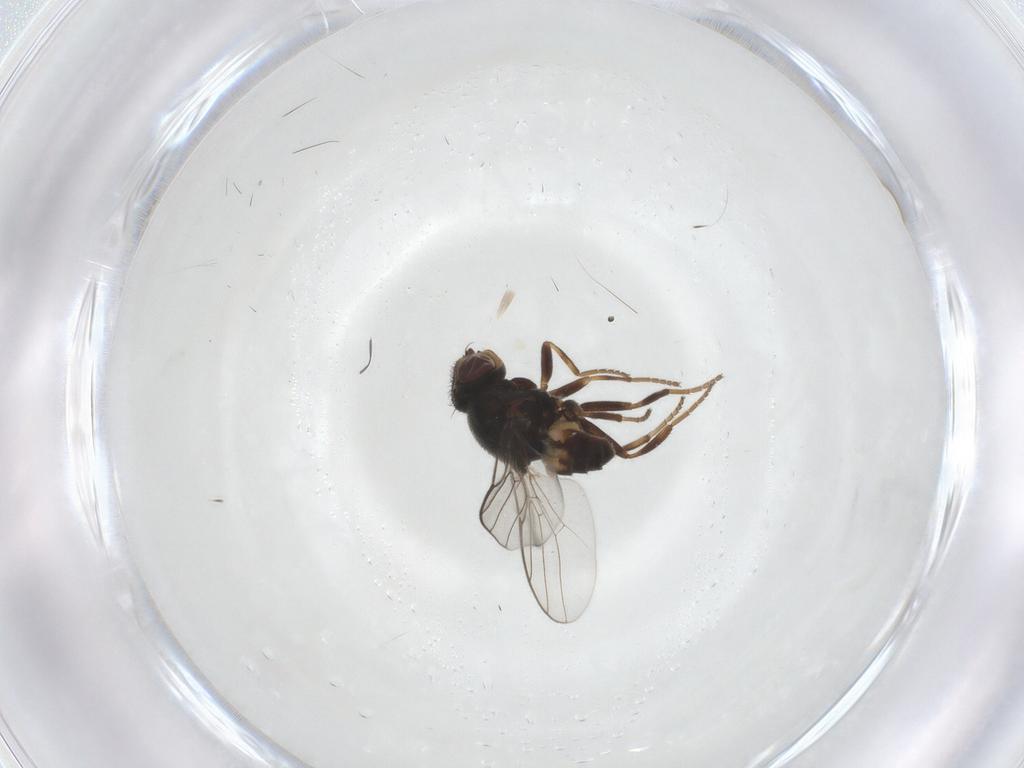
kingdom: Animalia
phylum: Arthropoda
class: Insecta
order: Diptera
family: Chloropidae
